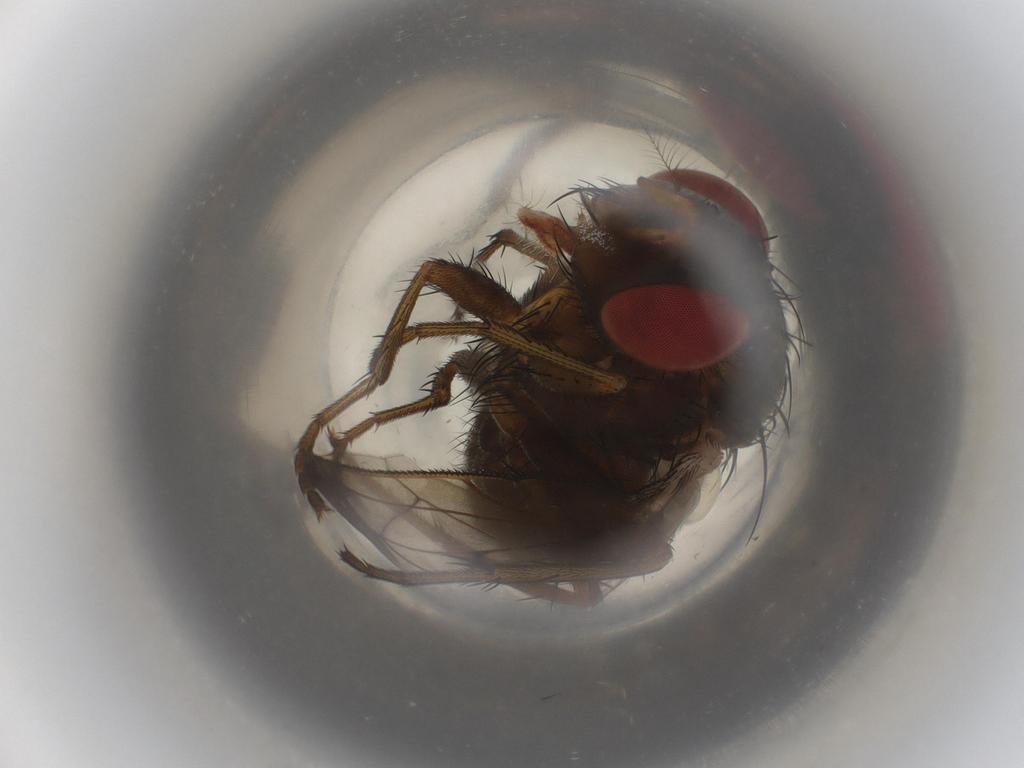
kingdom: Animalia
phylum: Arthropoda
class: Insecta
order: Diptera
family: Tachinidae
